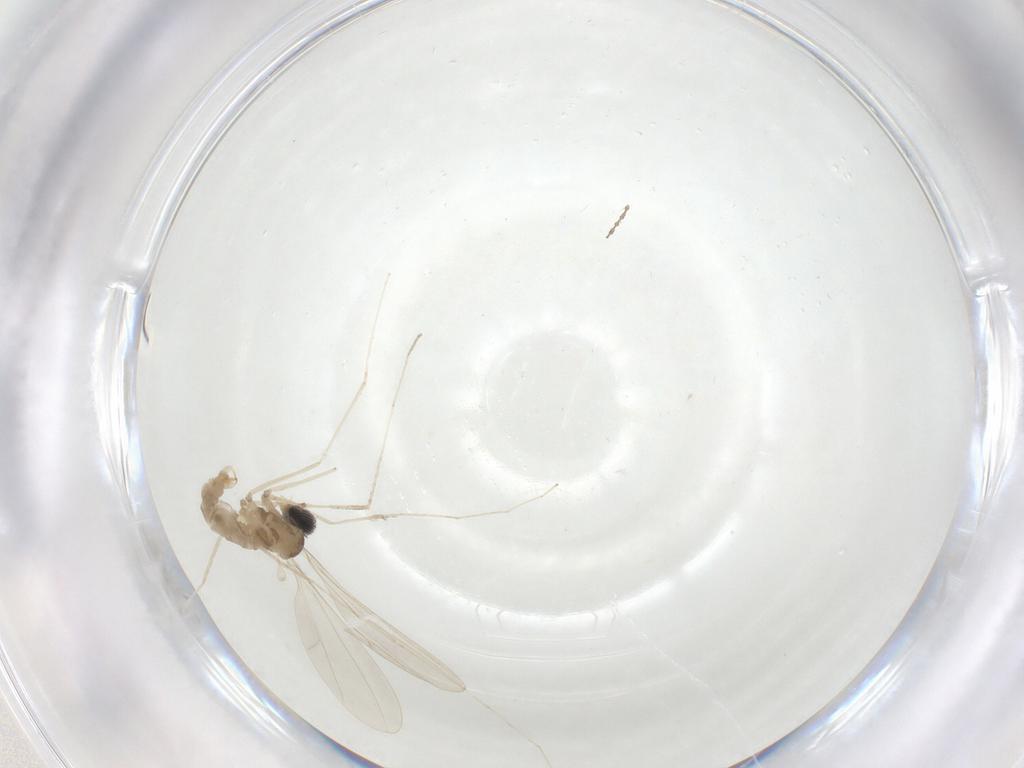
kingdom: Animalia
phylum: Arthropoda
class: Insecta
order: Diptera
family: Cecidomyiidae
